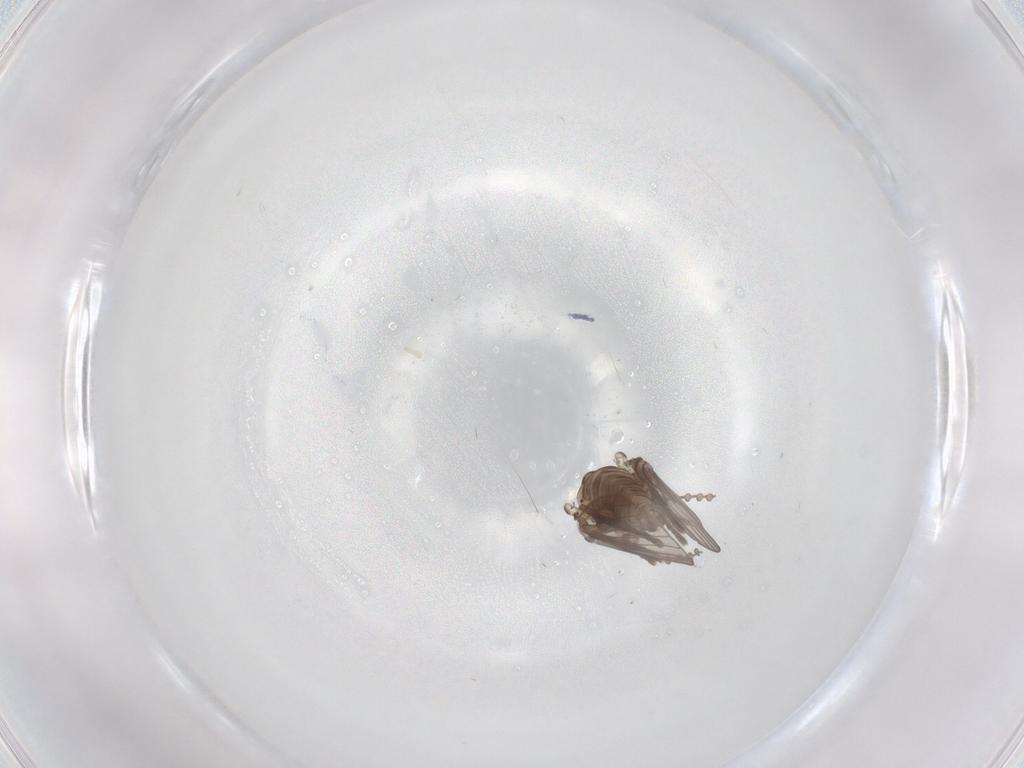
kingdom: Animalia
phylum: Arthropoda
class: Insecta
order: Diptera
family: Psychodidae
